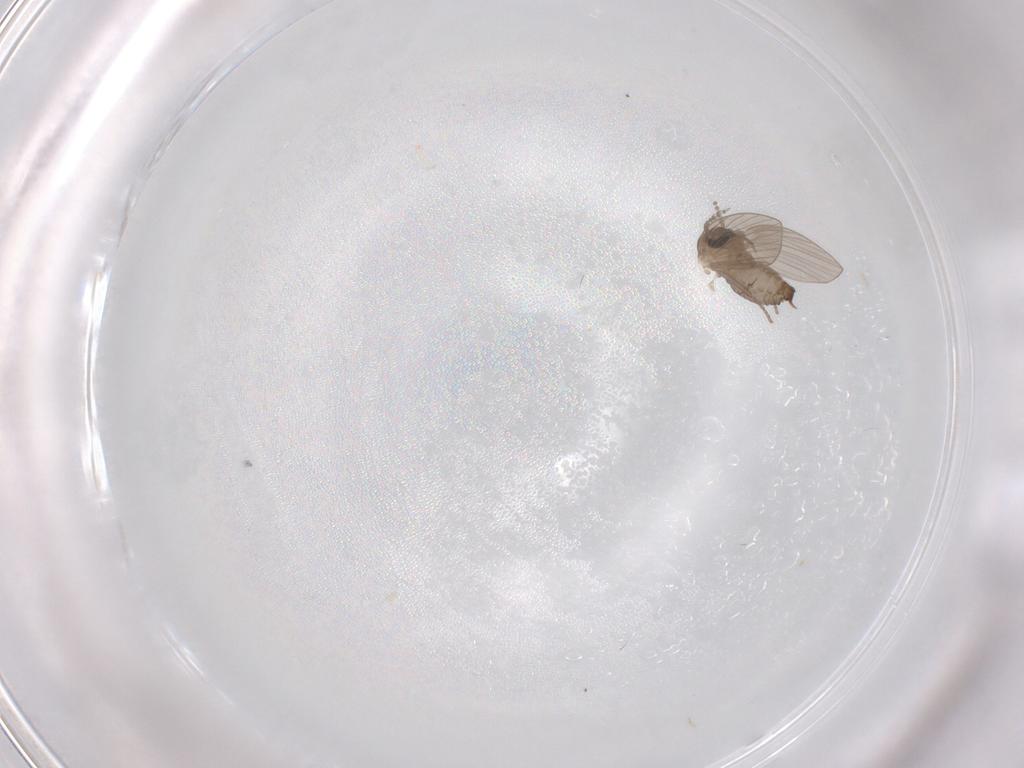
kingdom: Animalia
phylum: Arthropoda
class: Insecta
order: Diptera
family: Psychodidae
